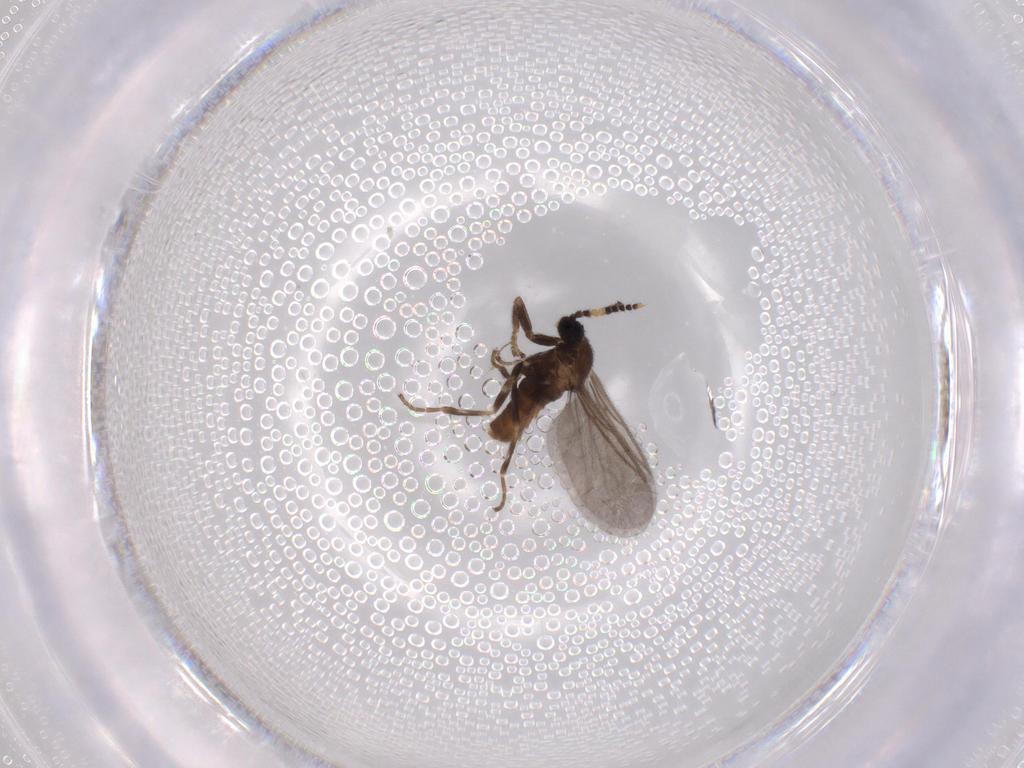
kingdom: Animalia
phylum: Arthropoda
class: Insecta
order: Diptera
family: Scatopsidae
